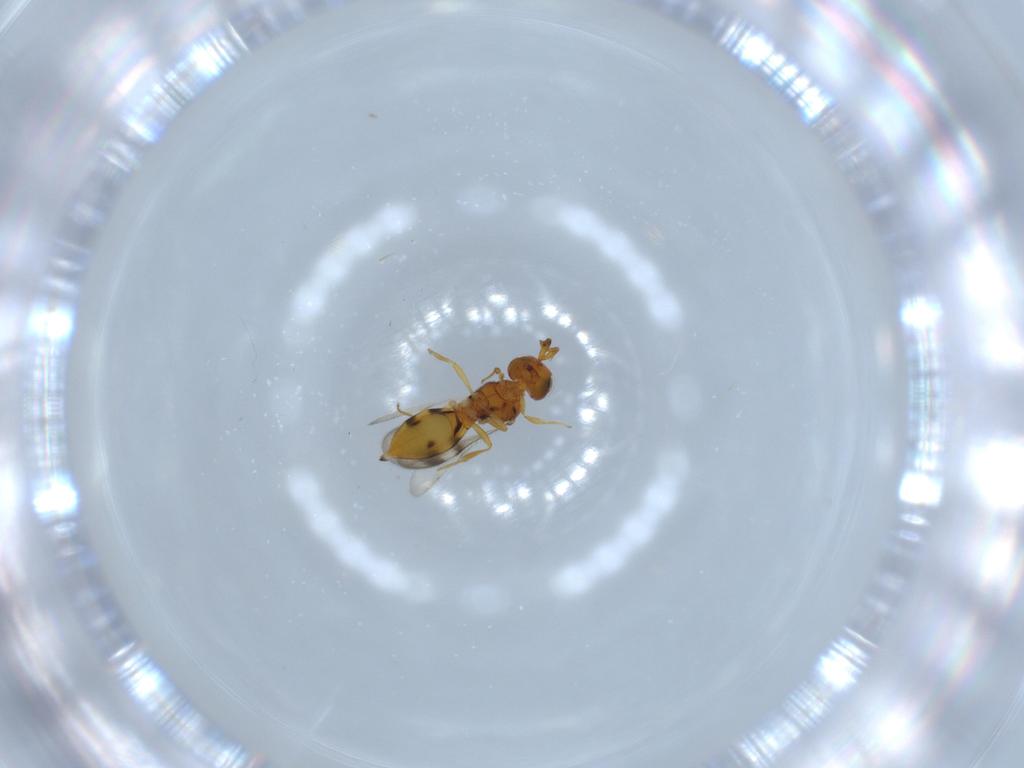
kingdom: Animalia
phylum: Arthropoda
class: Insecta
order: Hymenoptera
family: Scelionidae
